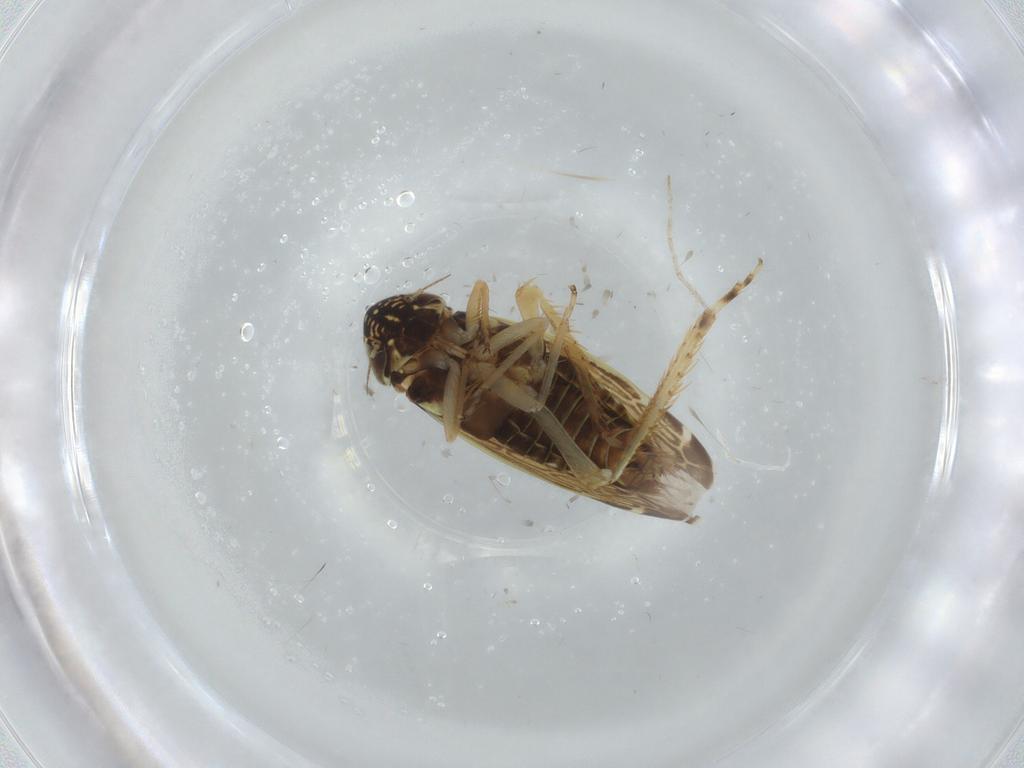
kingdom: Animalia
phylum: Arthropoda
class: Insecta
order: Hemiptera
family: Cicadellidae
